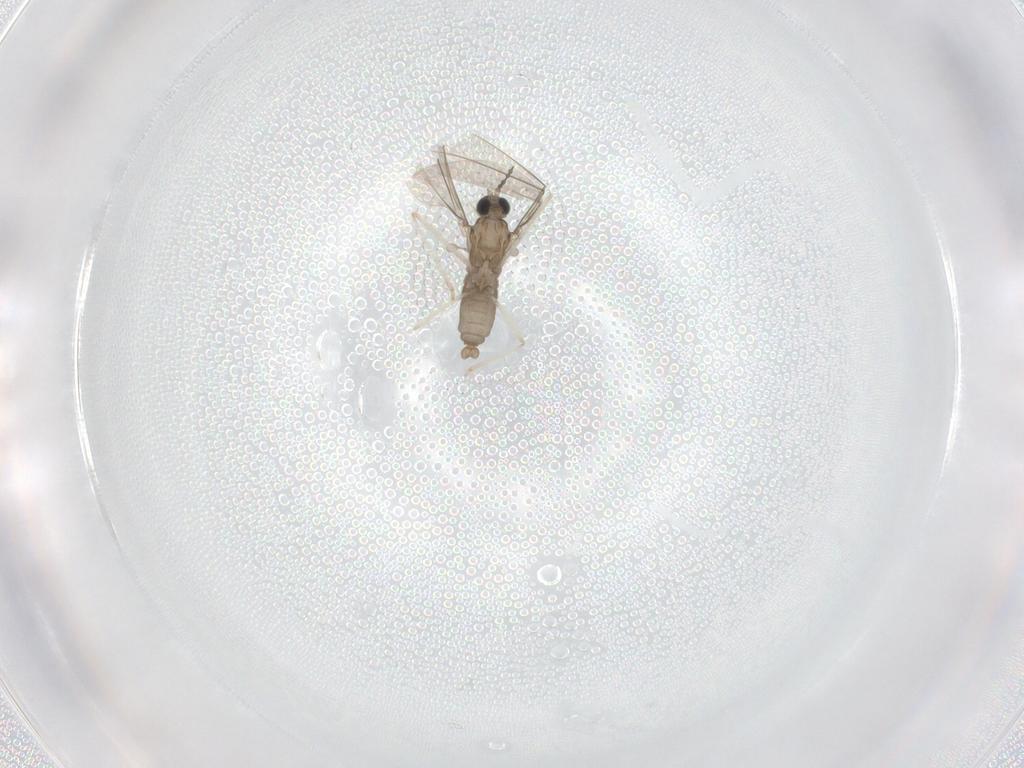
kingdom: Animalia
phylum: Arthropoda
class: Insecta
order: Diptera
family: Cecidomyiidae
